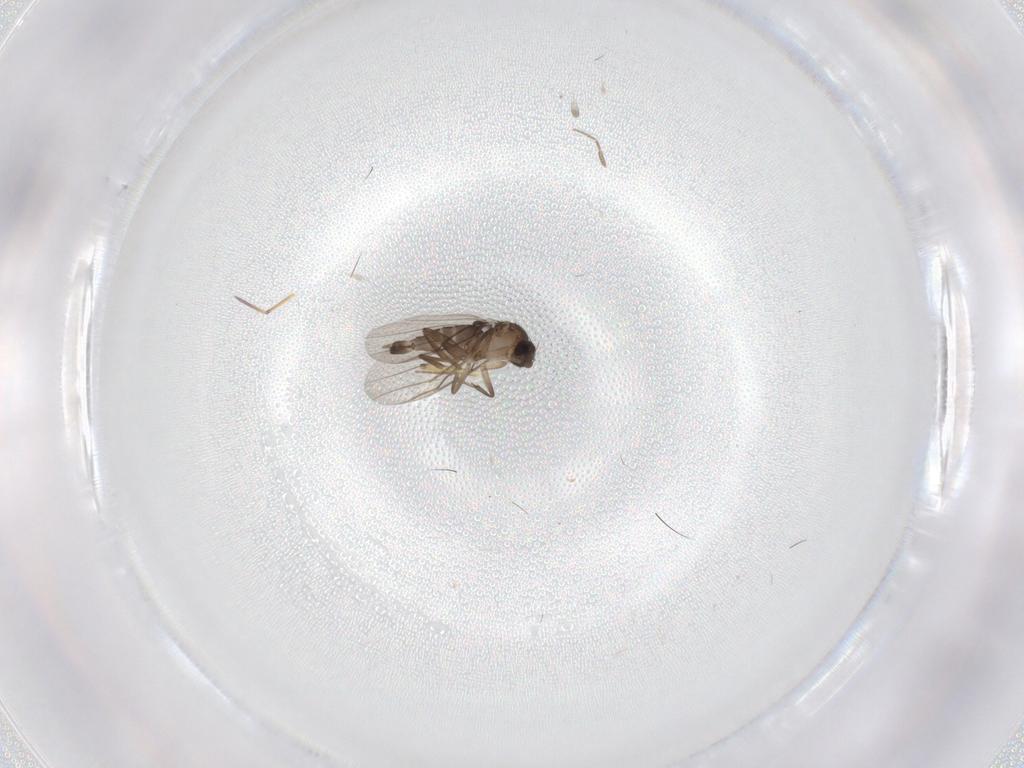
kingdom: Animalia
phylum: Arthropoda
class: Insecta
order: Diptera
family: Phoridae
